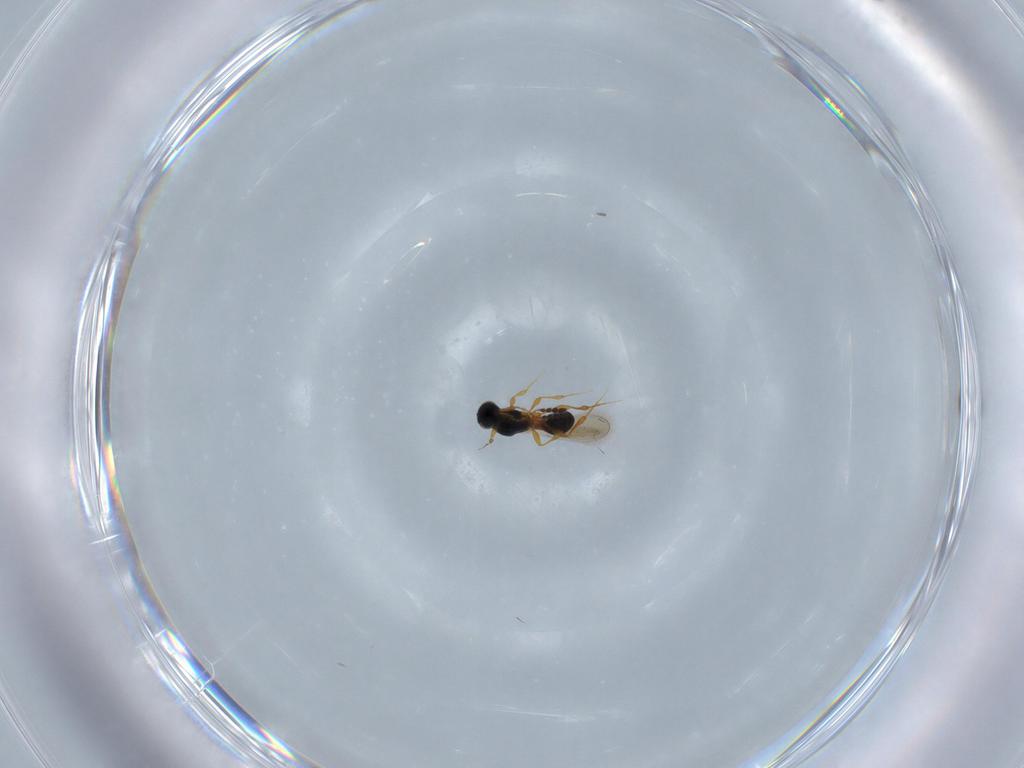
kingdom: Animalia
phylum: Arthropoda
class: Insecta
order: Hymenoptera
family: Platygastridae
